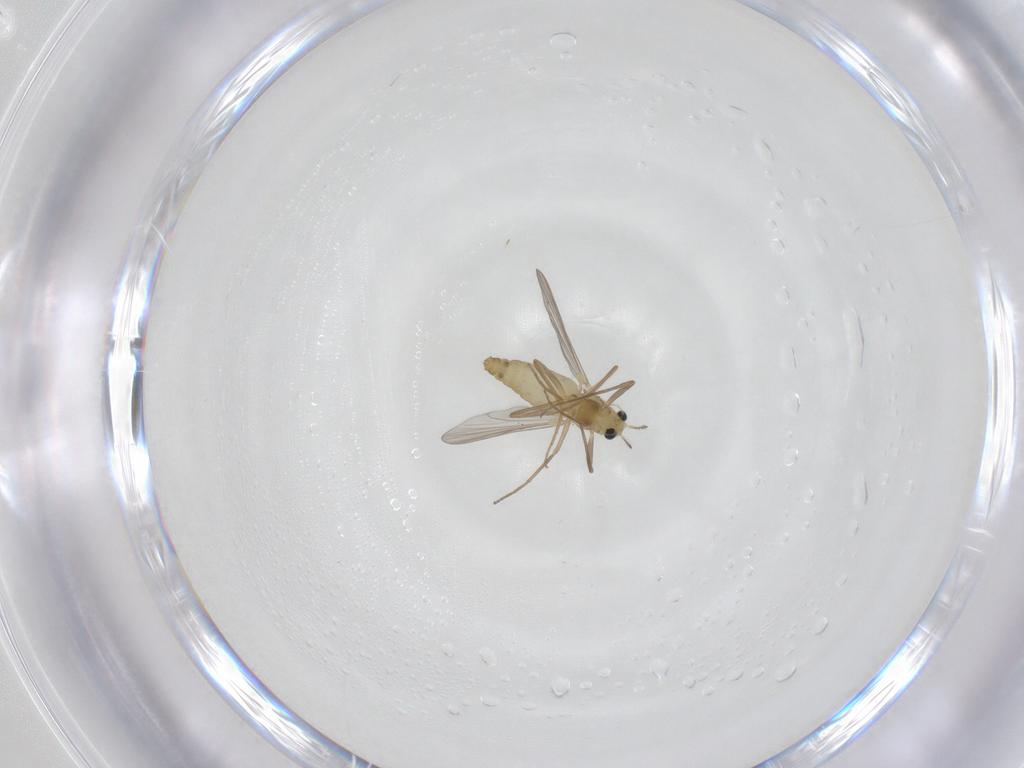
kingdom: Animalia
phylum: Arthropoda
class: Insecta
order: Diptera
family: Chironomidae
